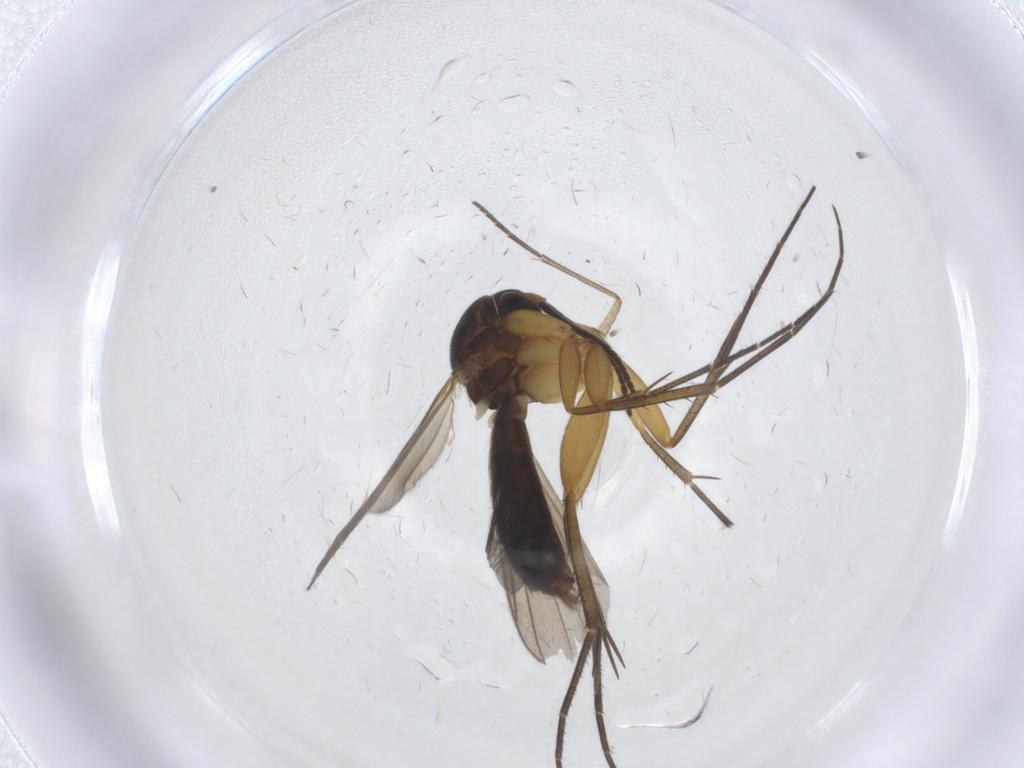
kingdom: Animalia
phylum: Arthropoda
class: Insecta
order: Diptera
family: Mycetophilidae
